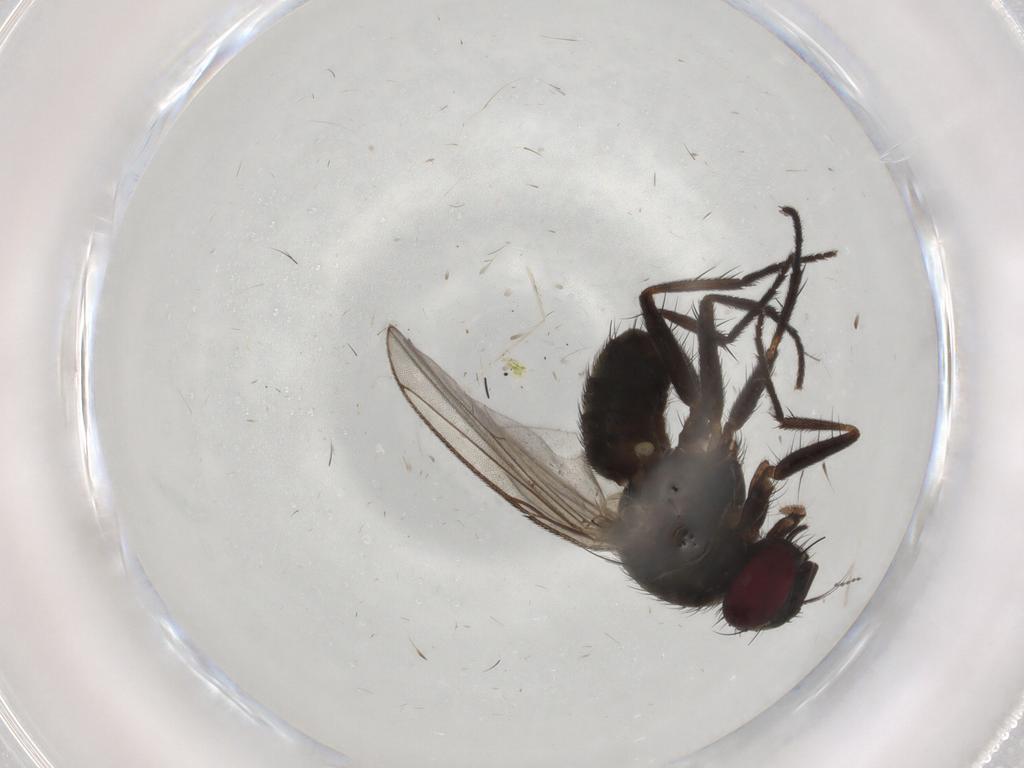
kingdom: Animalia
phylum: Arthropoda
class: Insecta
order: Diptera
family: Muscidae
